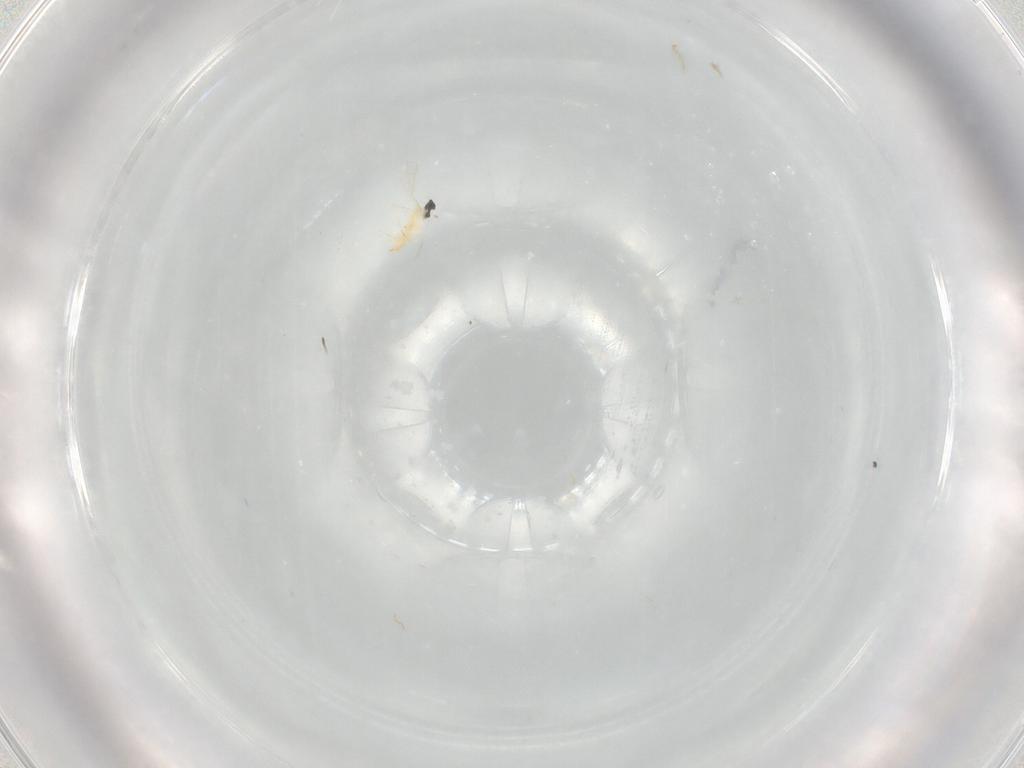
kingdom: Animalia
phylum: Arthropoda
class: Insecta
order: Diptera
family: Cecidomyiidae
